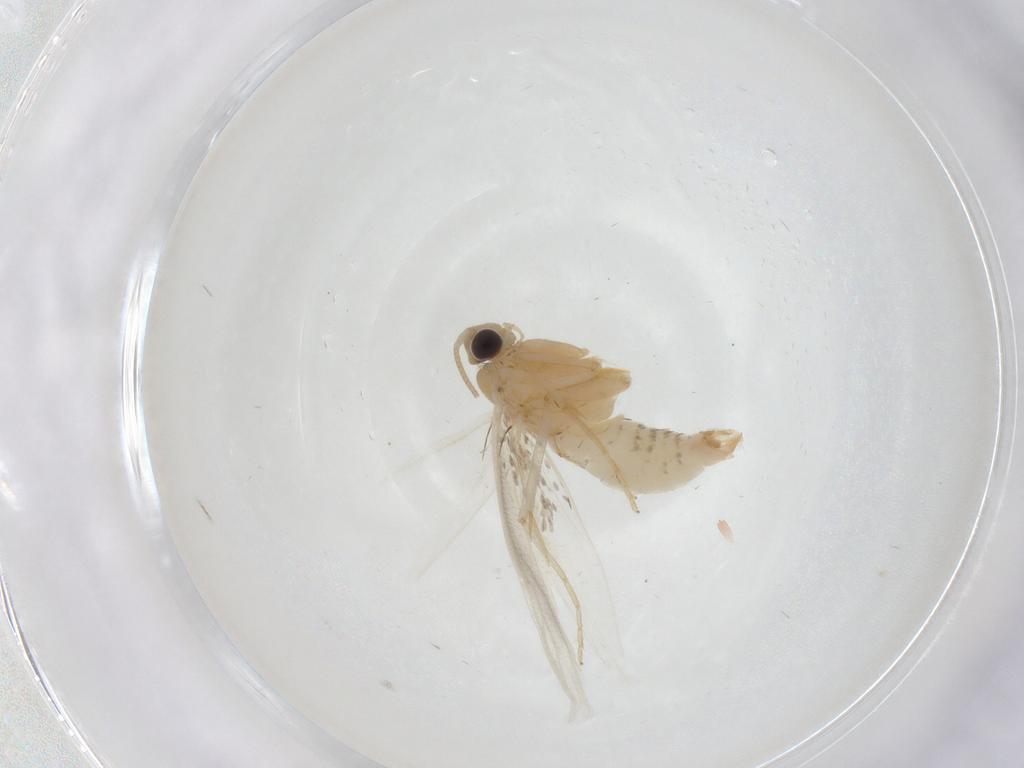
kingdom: Animalia
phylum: Arthropoda
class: Insecta
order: Lepidoptera
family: Tineidae
